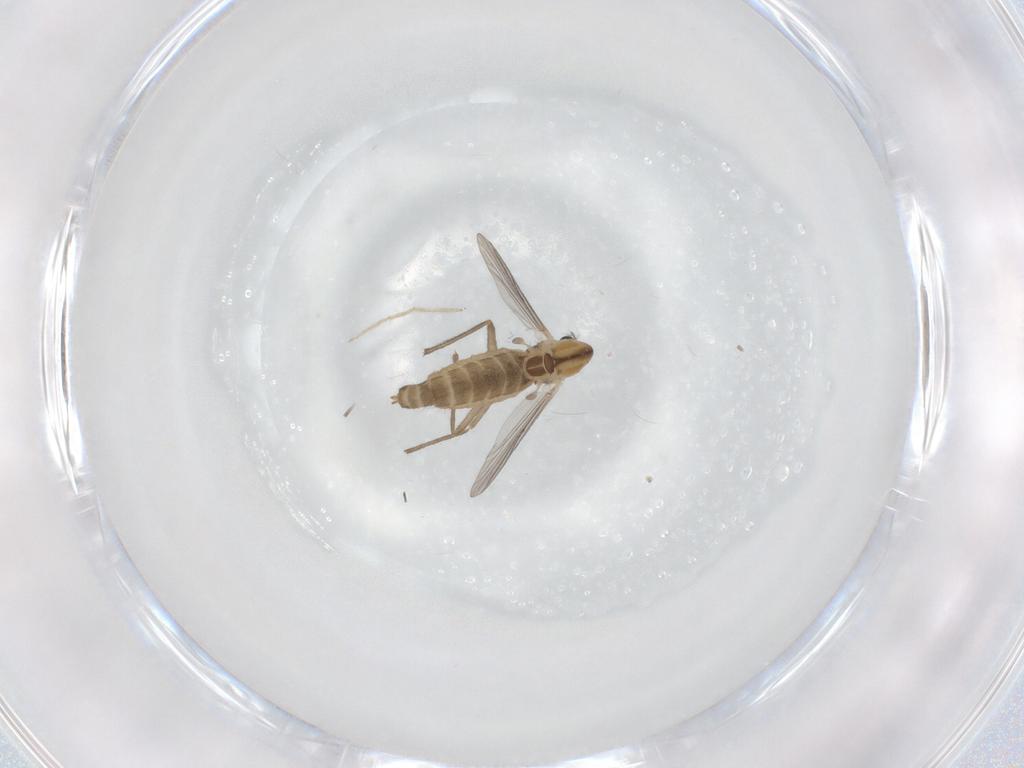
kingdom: Animalia
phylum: Arthropoda
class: Insecta
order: Diptera
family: Chironomidae
